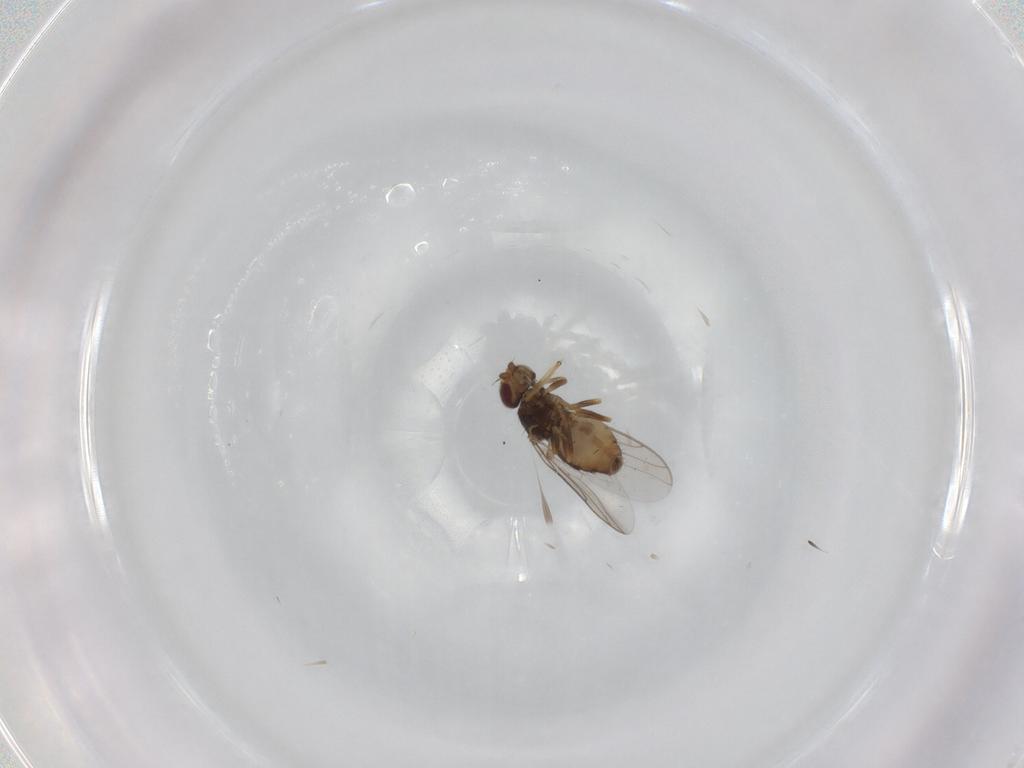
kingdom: Animalia
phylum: Arthropoda
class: Insecta
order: Diptera
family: Chloropidae
